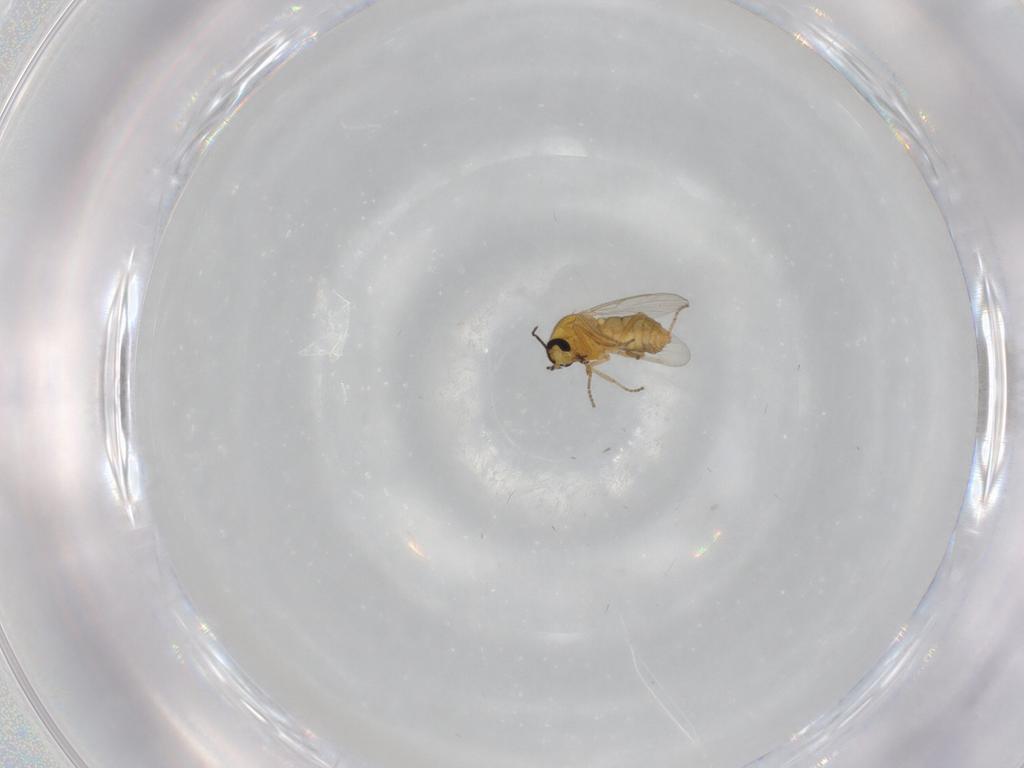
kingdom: Animalia
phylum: Arthropoda
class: Insecta
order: Diptera
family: Ceratopogonidae
